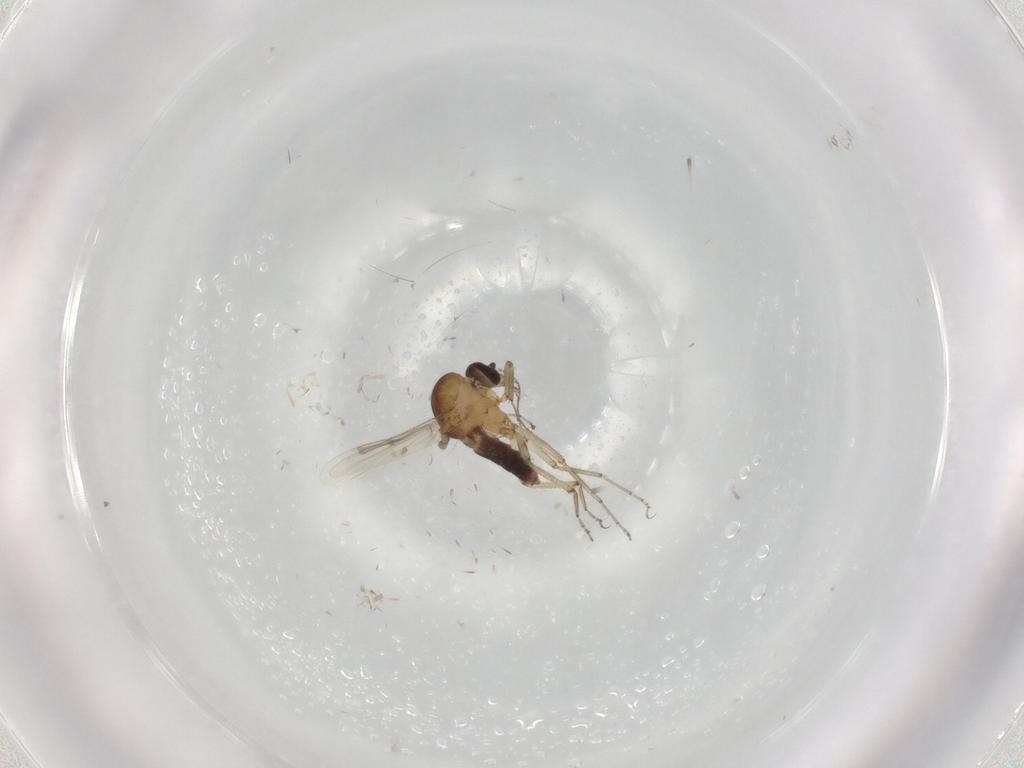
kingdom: Animalia
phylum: Arthropoda
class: Insecta
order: Diptera
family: Ceratopogonidae
